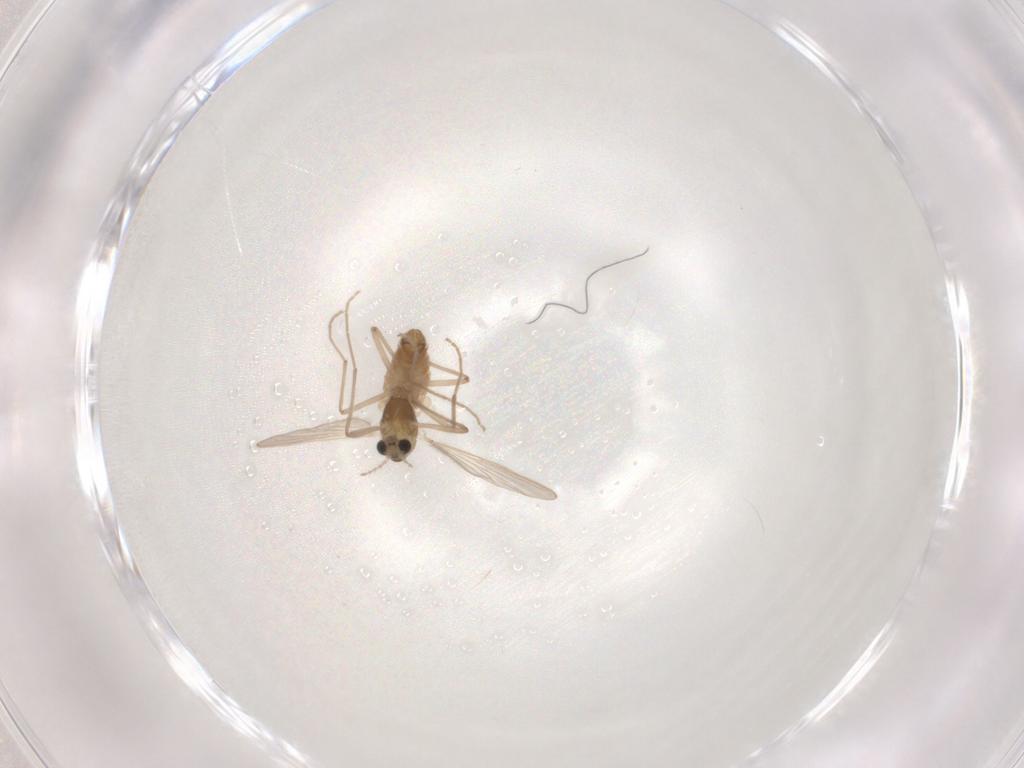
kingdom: Animalia
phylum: Arthropoda
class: Insecta
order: Diptera
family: Chironomidae
